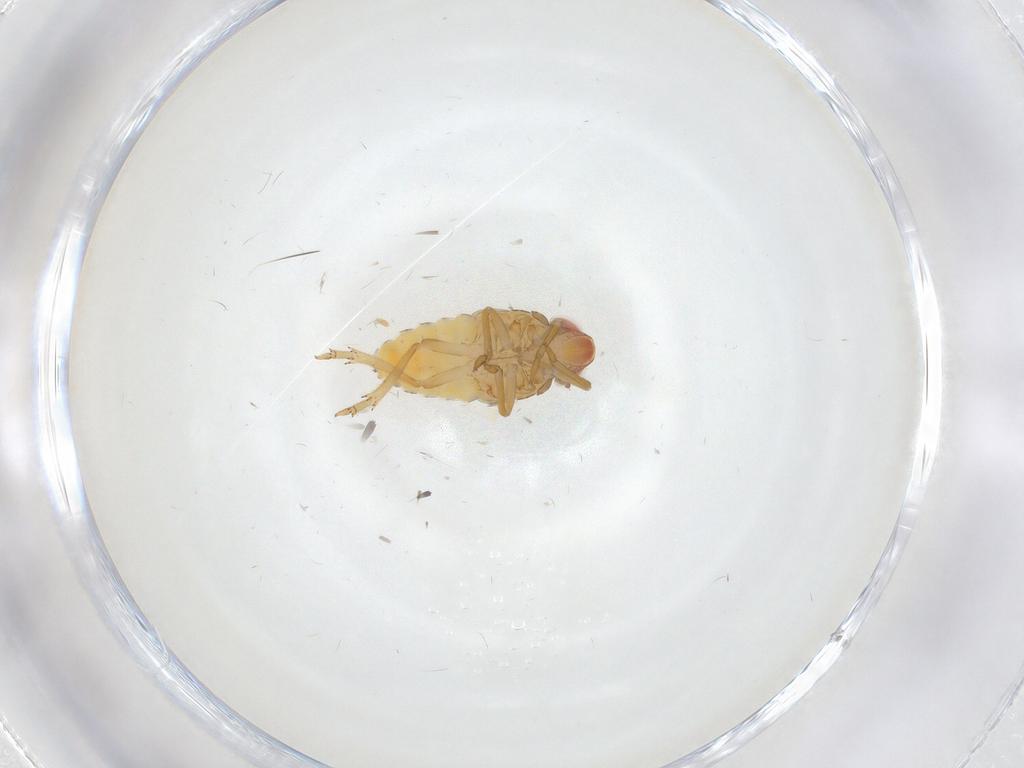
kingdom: Animalia
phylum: Arthropoda
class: Insecta
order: Hemiptera
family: Issidae
